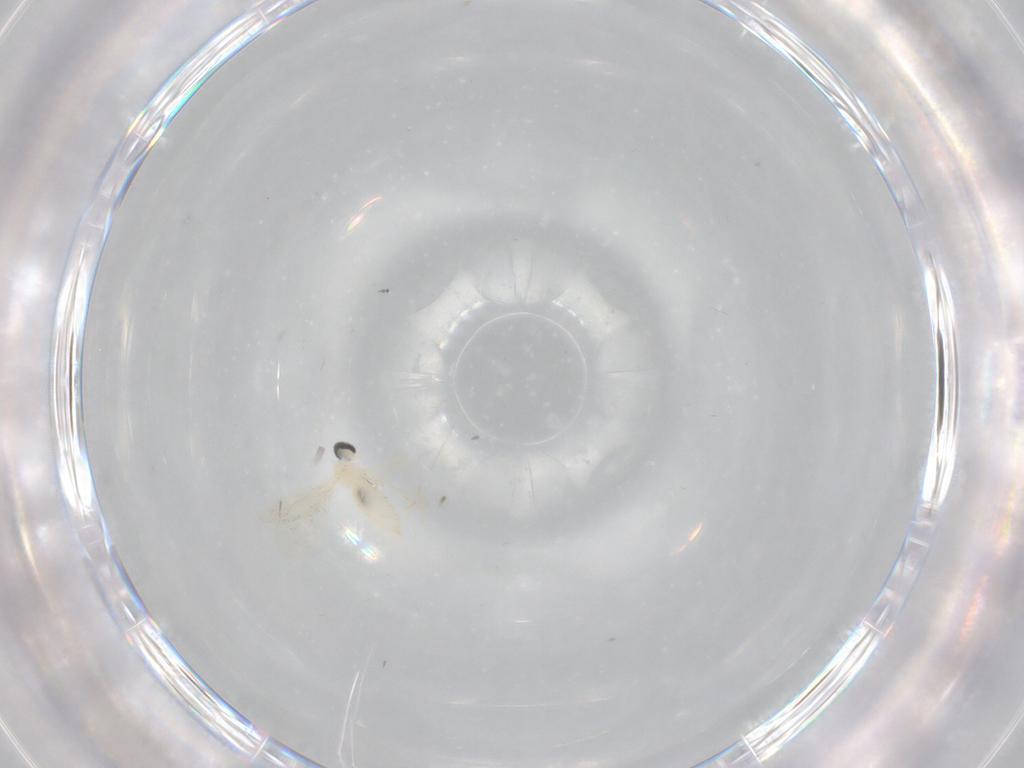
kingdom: Animalia
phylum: Arthropoda
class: Insecta
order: Diptera
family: Cecidomyiidae
